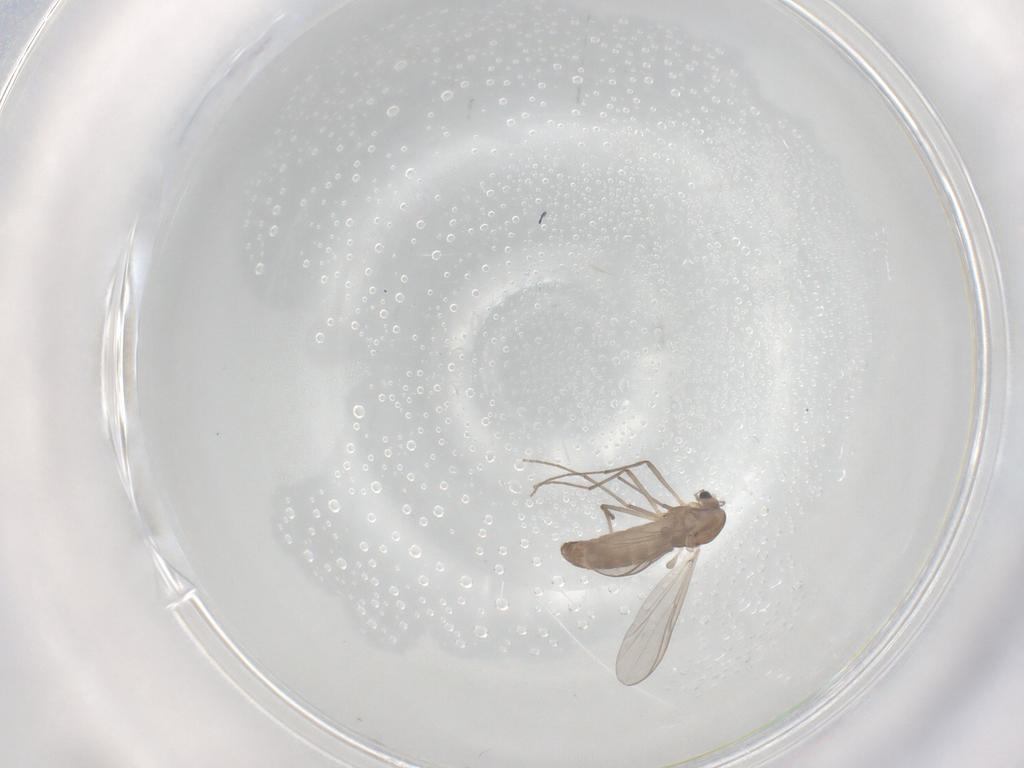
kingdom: Animalia
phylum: Arthropoda
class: Insecta
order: Diptera
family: Chironomidae
